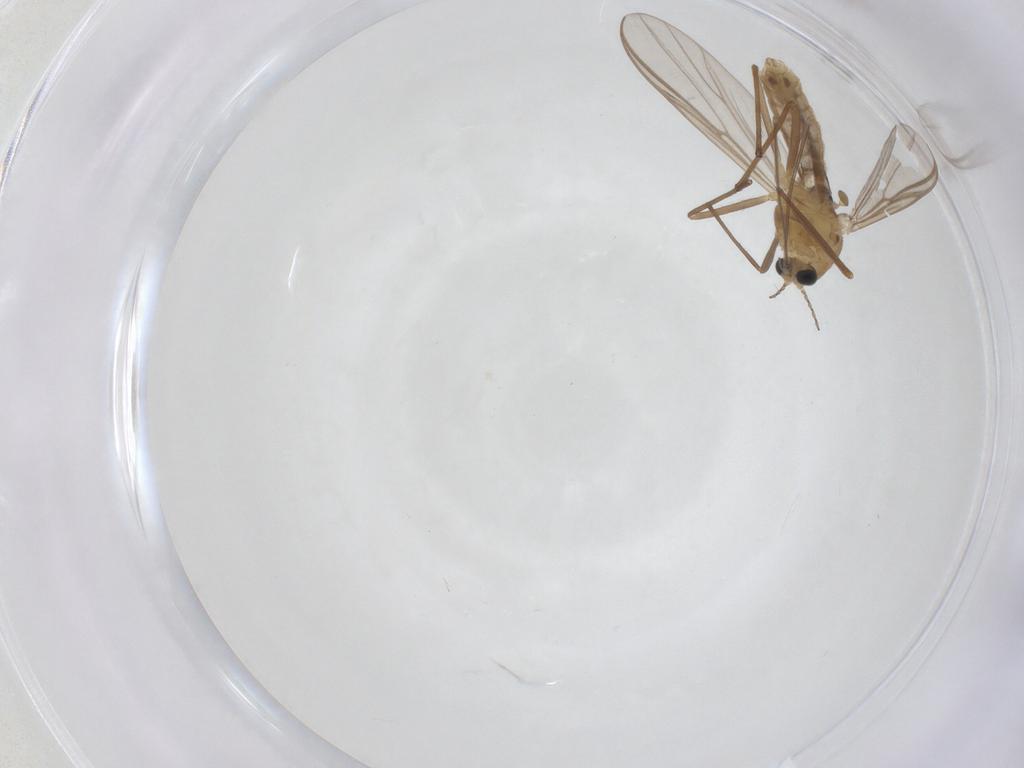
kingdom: Animalia
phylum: Arthropoda
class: Insecta
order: Diptera
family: Chironomidae
